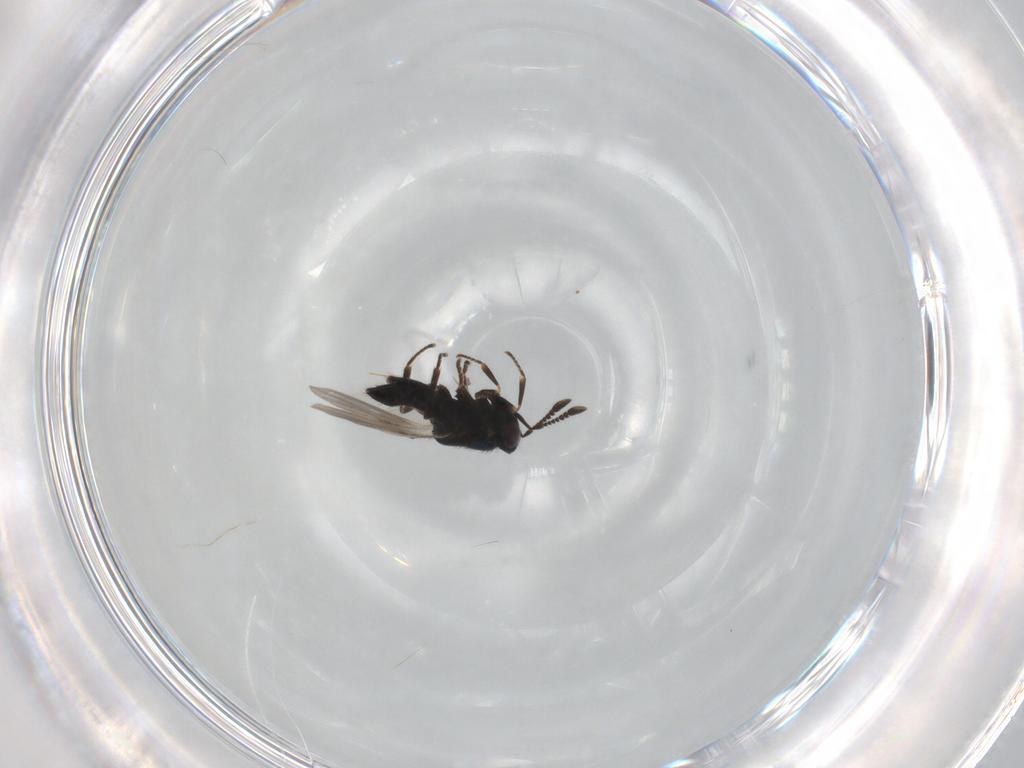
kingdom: Animalia
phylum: Arthropoda
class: Insecta
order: Hymenoptera
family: Encyrtidae
